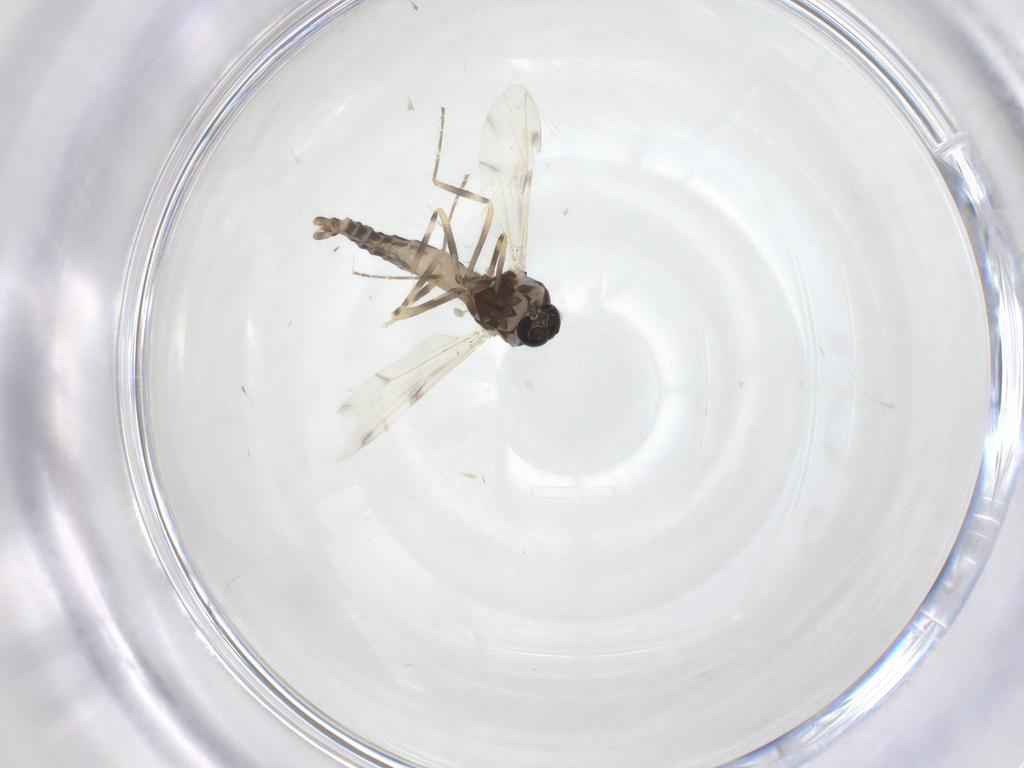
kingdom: Animalia
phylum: Arthropoda
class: Insecta
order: Diptera
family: Ceratopogonidae
